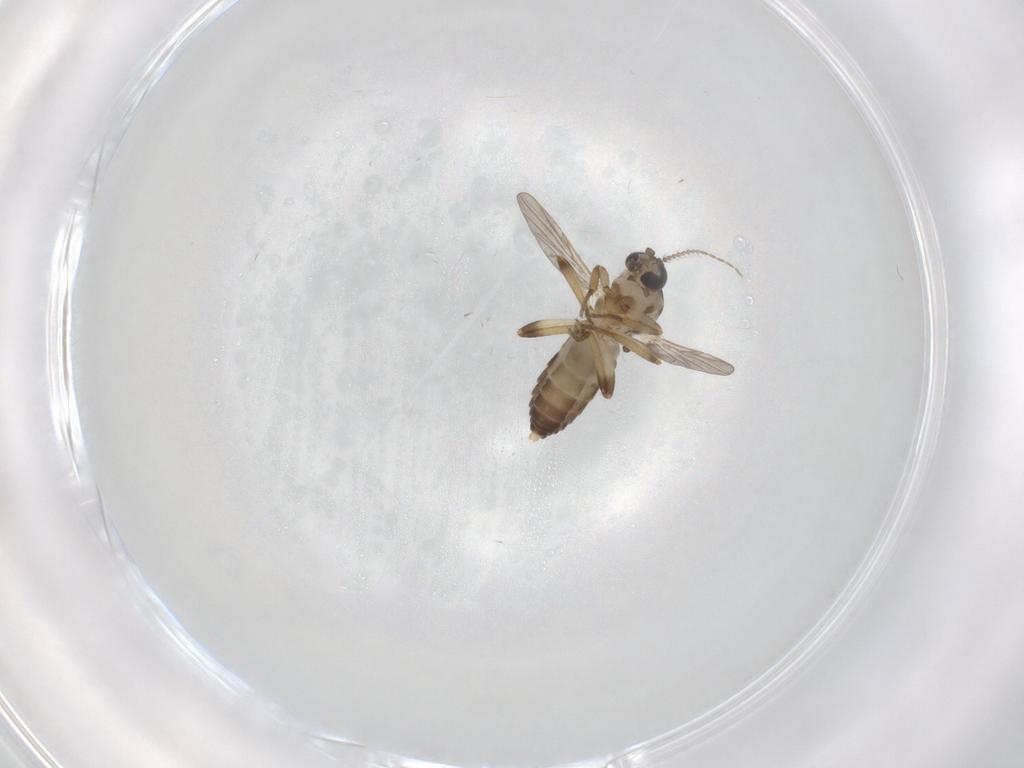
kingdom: Animalia
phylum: Arthropoda
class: Insecta
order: Diptera
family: Ceratopogonidae
